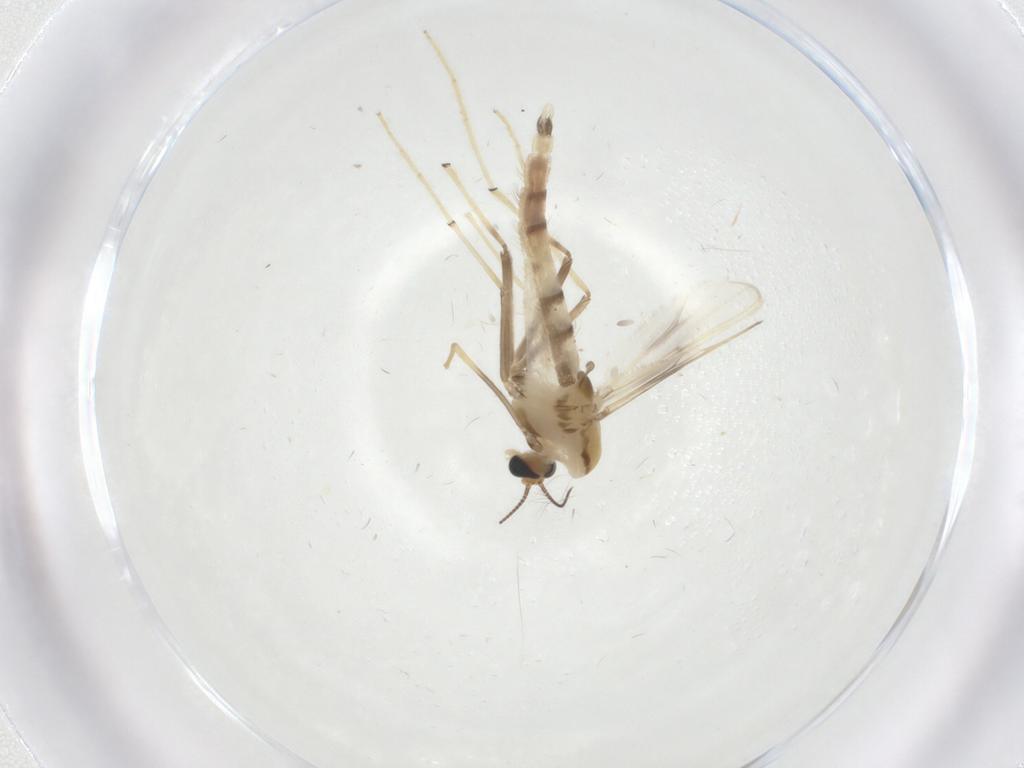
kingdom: Animalia
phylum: Arthropoda
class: Insecta
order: Diptera
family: Chironomidae
